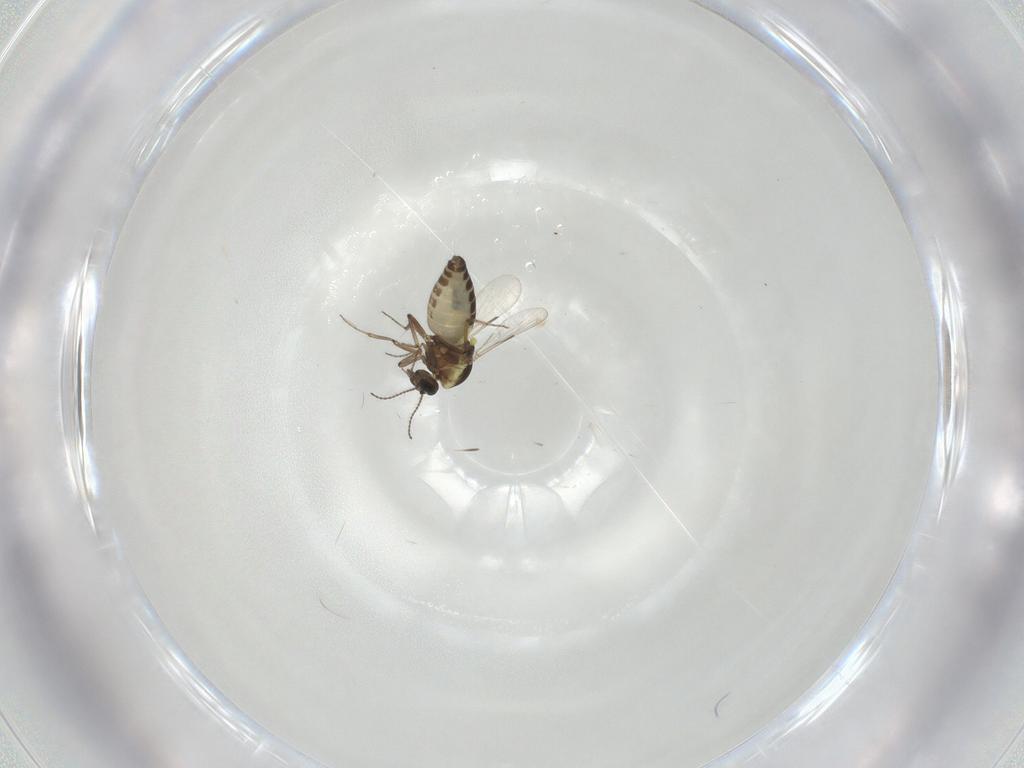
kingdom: Animalia
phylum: Arthropoda
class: Insecta
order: Diptera
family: Ceratopogonidae
